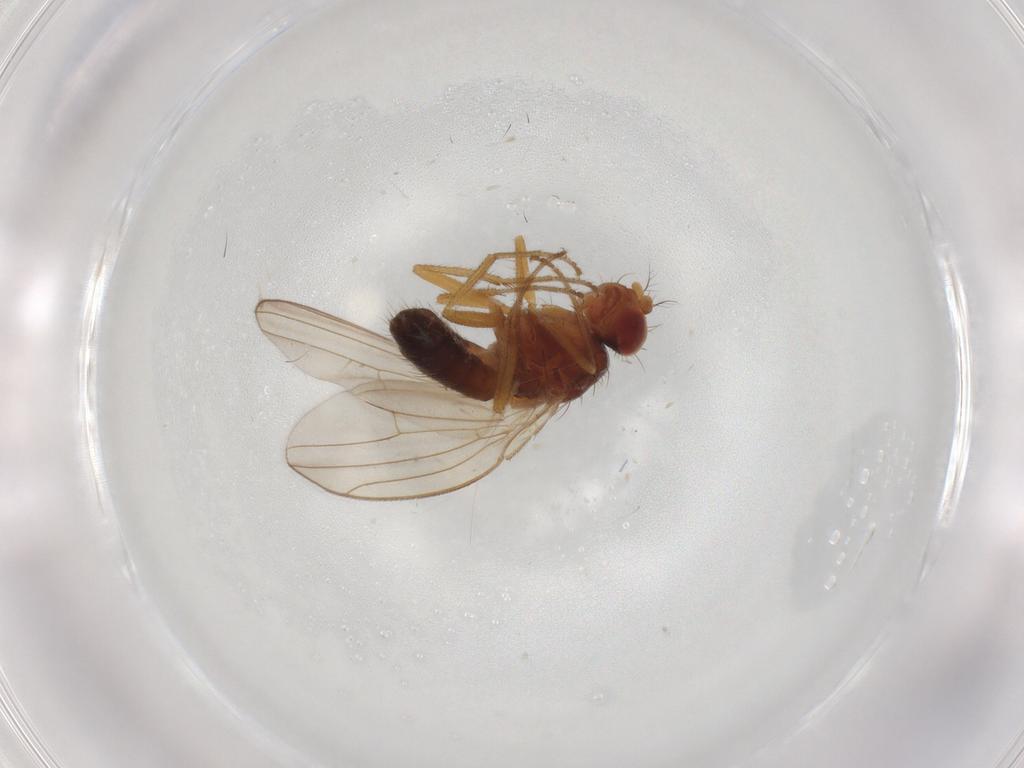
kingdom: Animalia
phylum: Arthropoda
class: Insecta
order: Diptera
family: Drosophilidae
